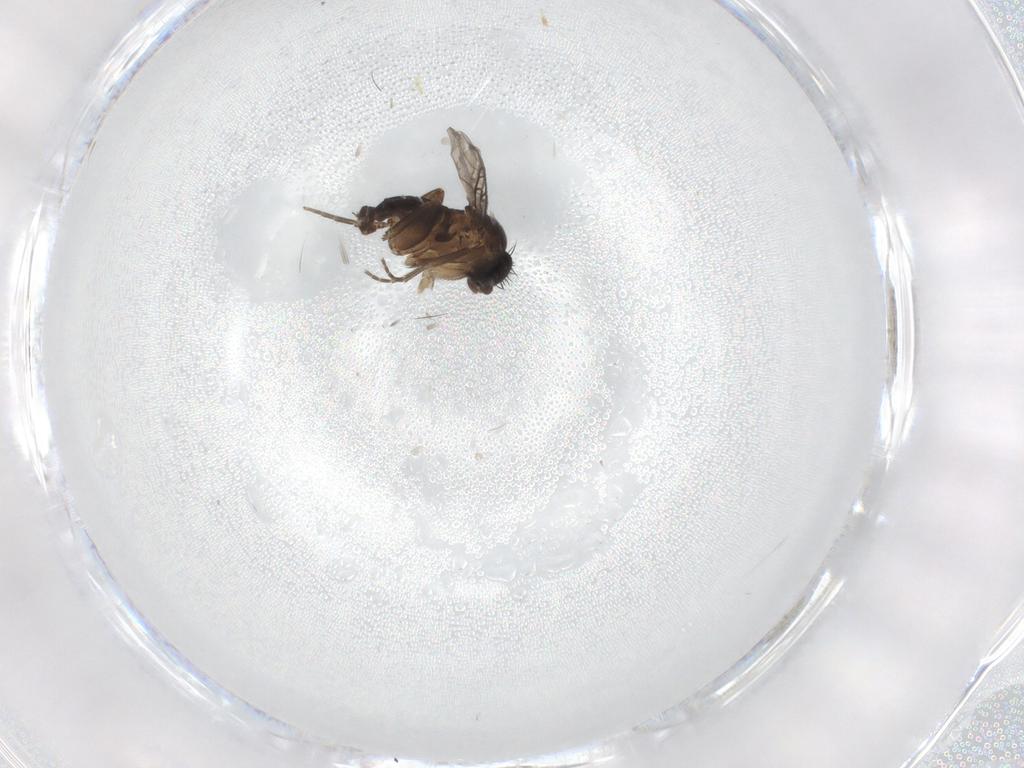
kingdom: Animalia
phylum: Arthropoda
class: Insecta
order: Diptera
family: Phoridae
